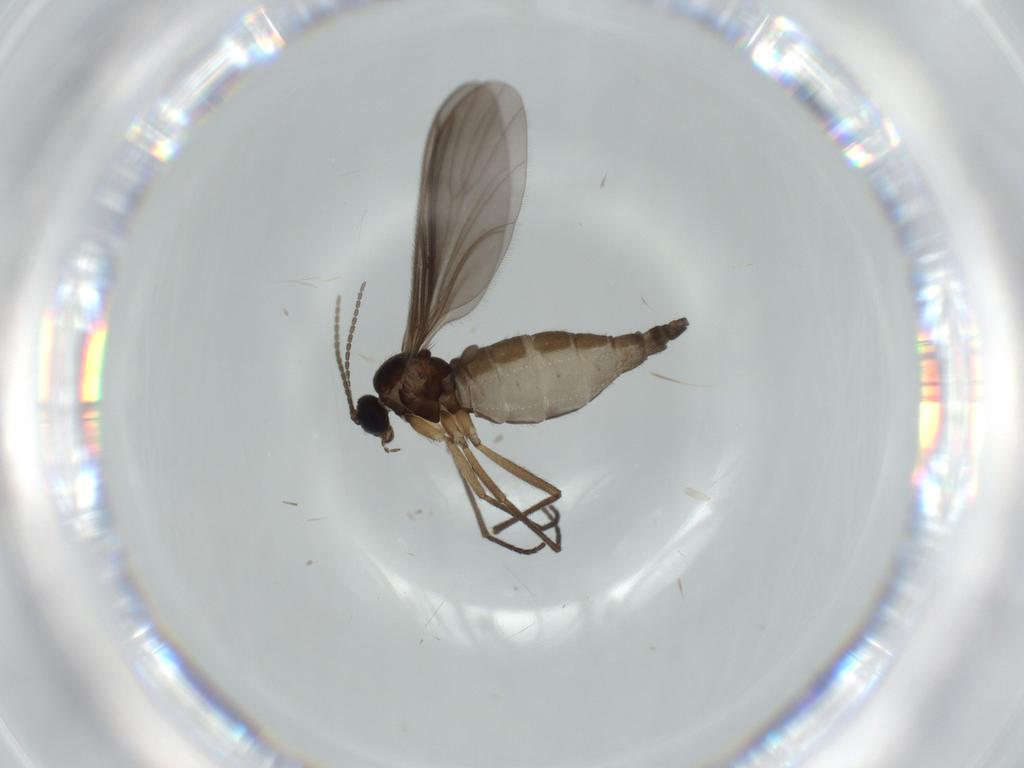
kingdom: Animalia
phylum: Arthropoda
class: Insecta
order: Diptera
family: Sciaridae
